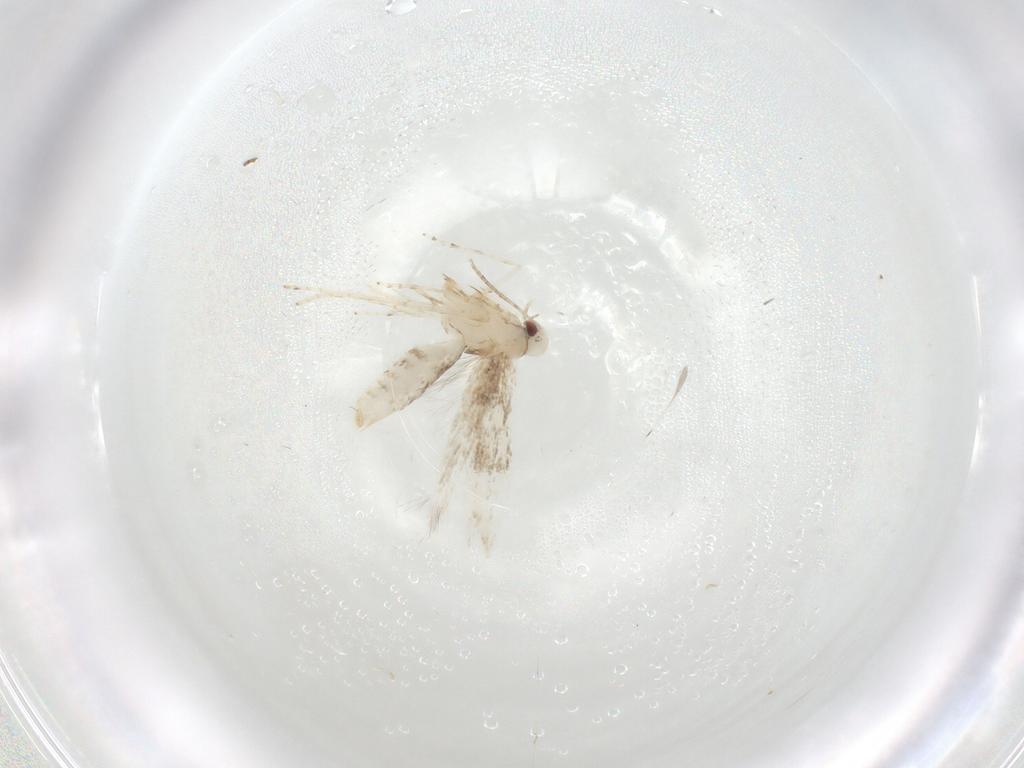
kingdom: Animalia
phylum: Arthropoda
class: Insecta
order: Lepidoptera
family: Gracillariidae
